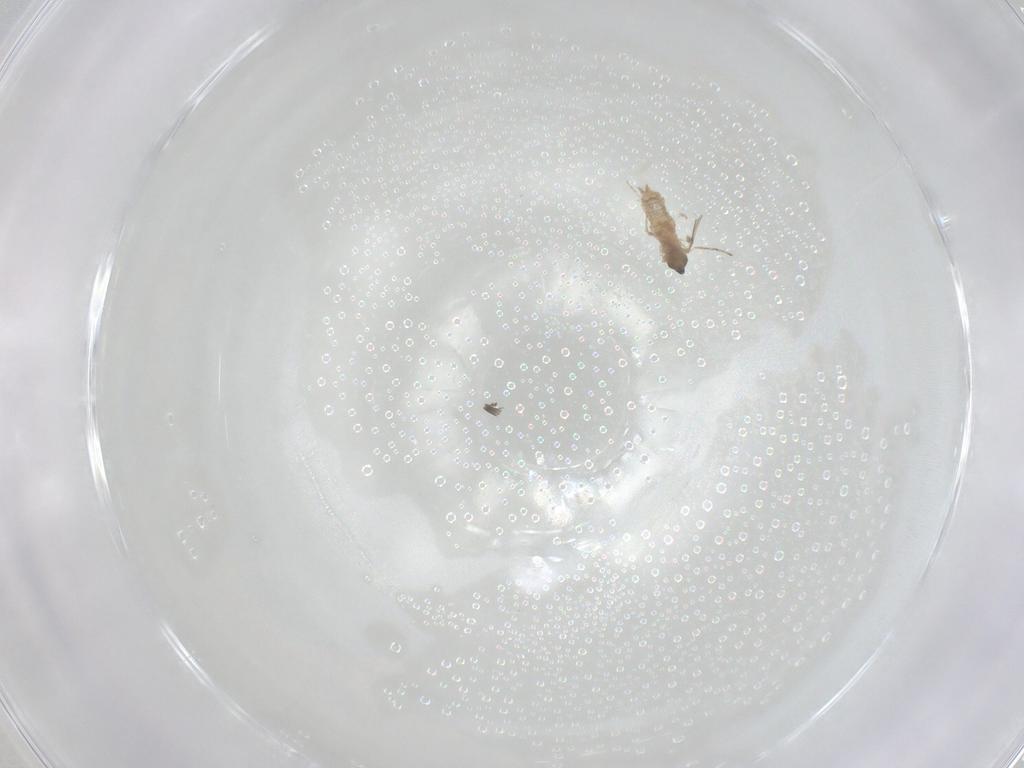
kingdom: Animalia
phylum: Arthropoda
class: Insecta
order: Diptera
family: Cecidomyiidae
